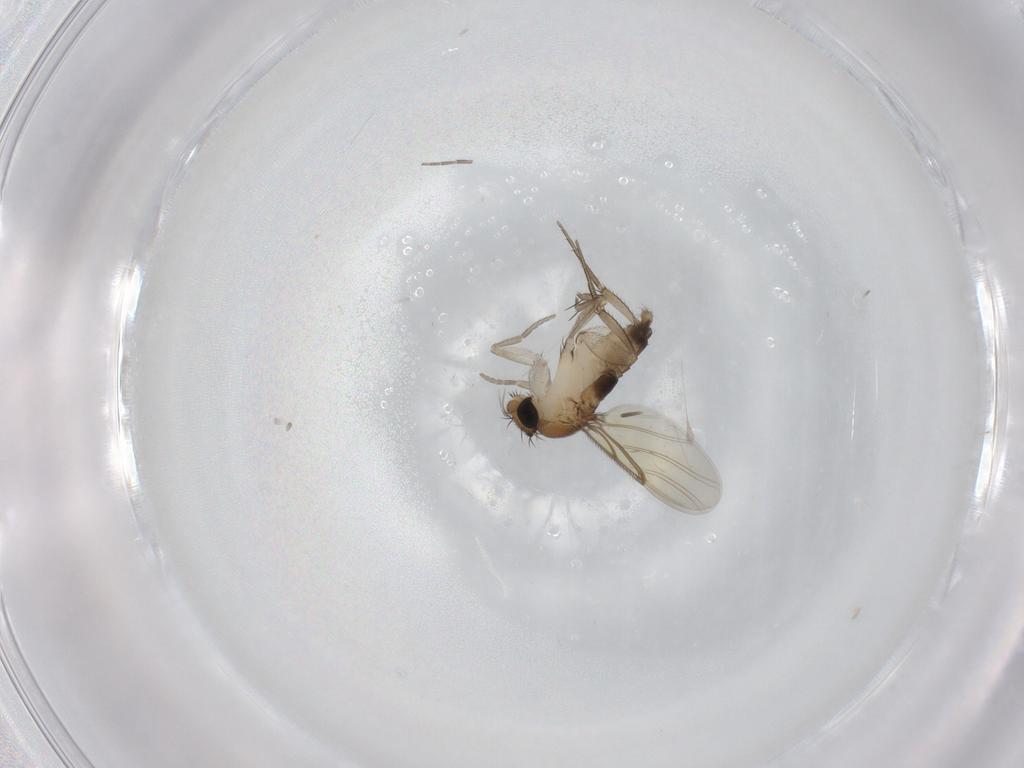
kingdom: Animalia
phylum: Arthropoda
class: Insecta
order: Diptera
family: Phoridae
